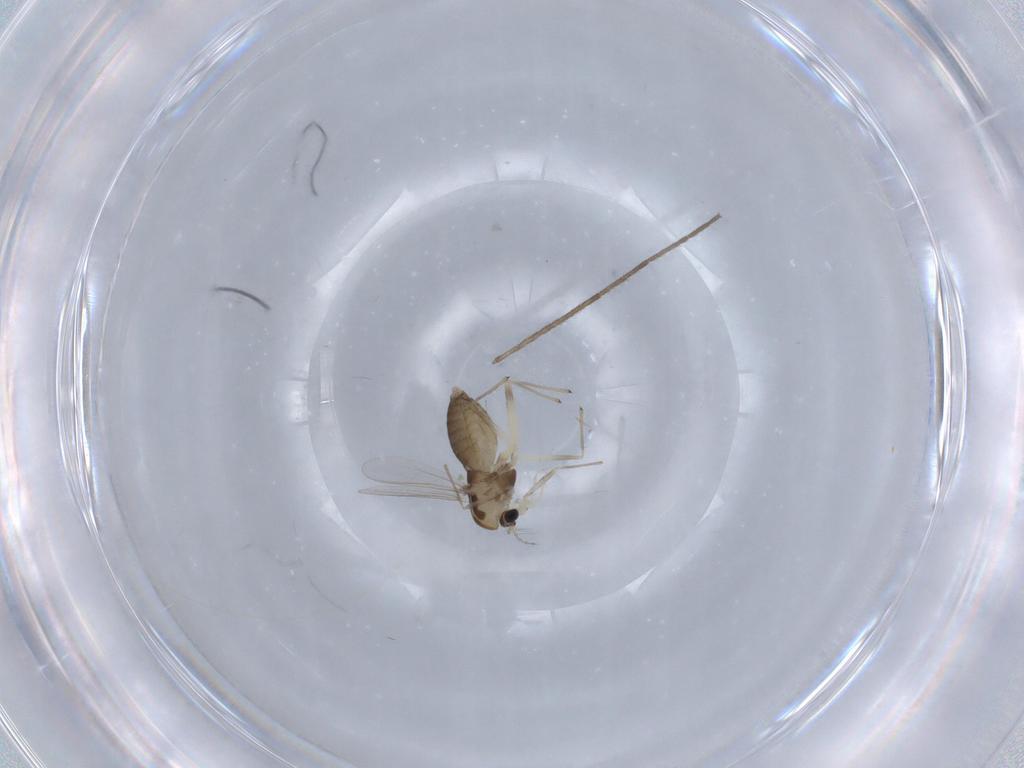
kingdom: Animalia
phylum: Arthropoda
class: Insecta
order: Diptera
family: Chironomidae
